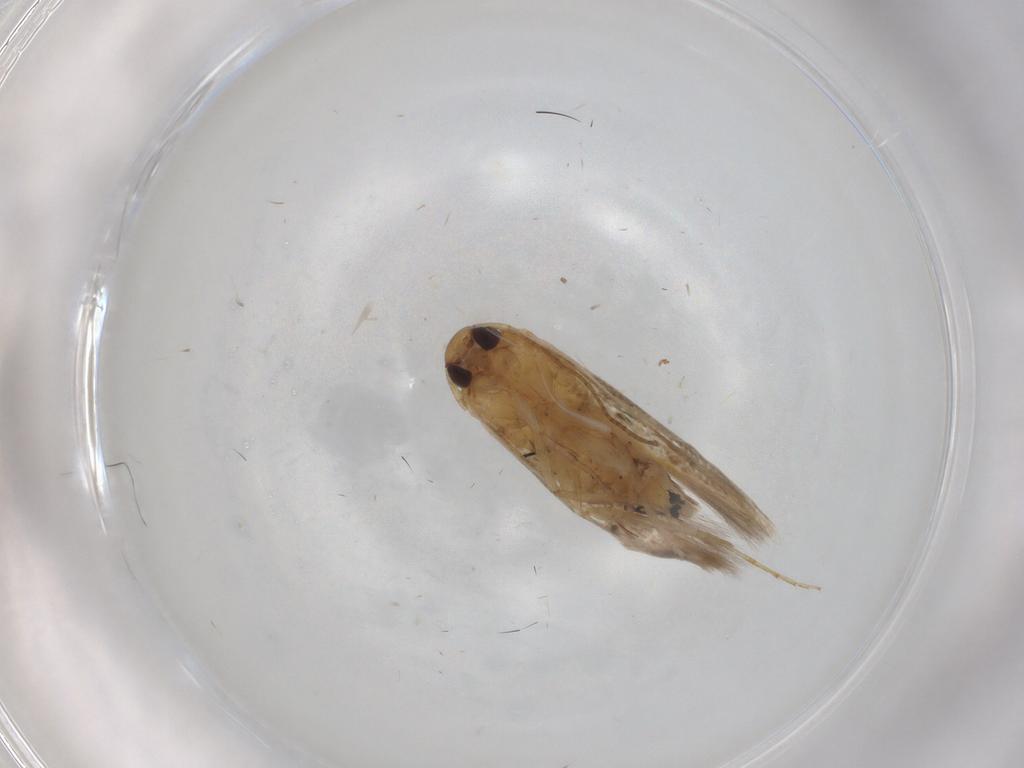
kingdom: Animalia
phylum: Arthropoda
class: Insecta
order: Lepidoptera
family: Cosmopterigidae
